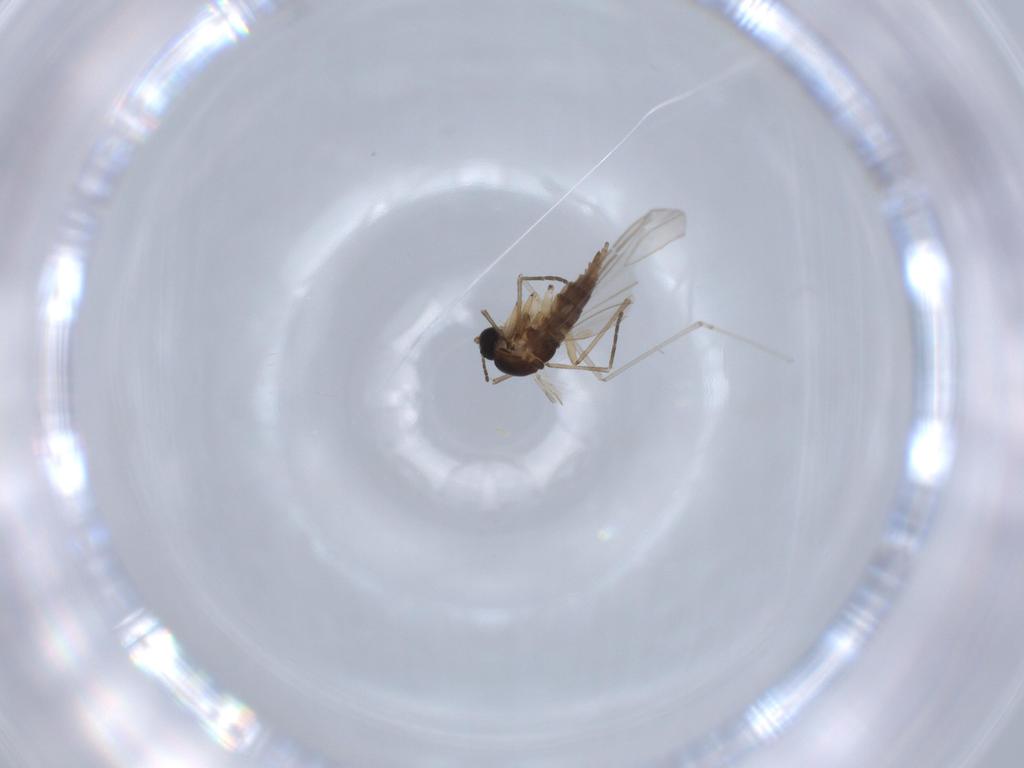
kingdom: Animalia
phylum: Arthropoda
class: Insecta
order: Diptera
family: Sciaridae
